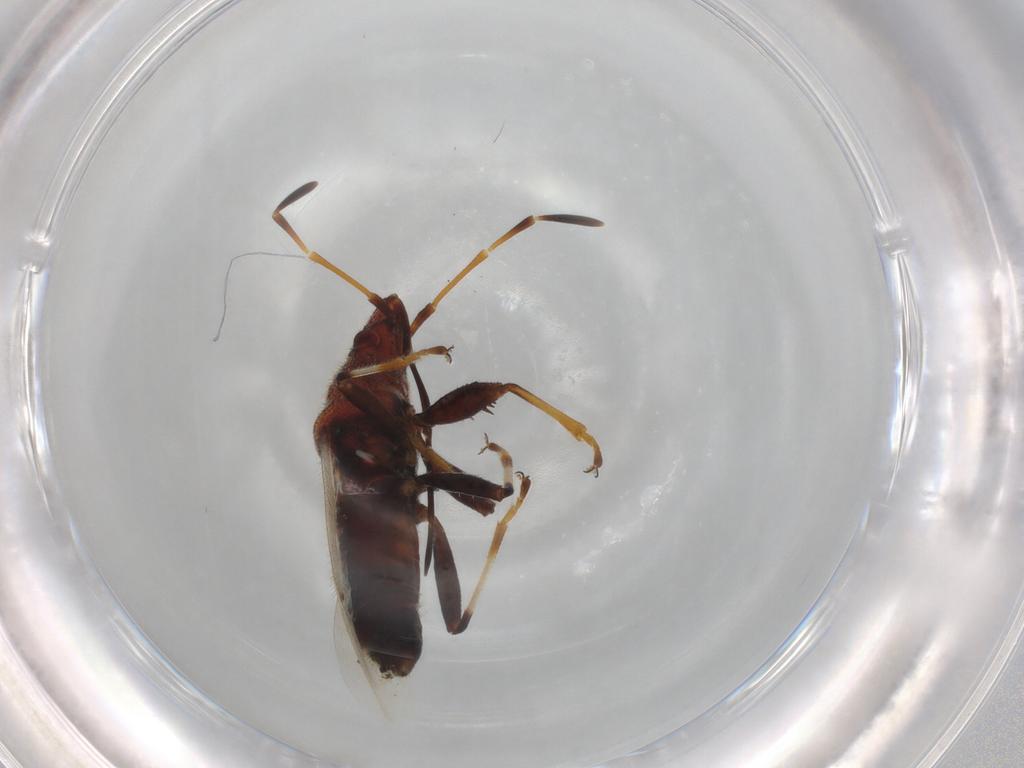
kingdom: Animalia
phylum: Arthropoda
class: Insecta
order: Hemiptera
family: Oxycarenidae
